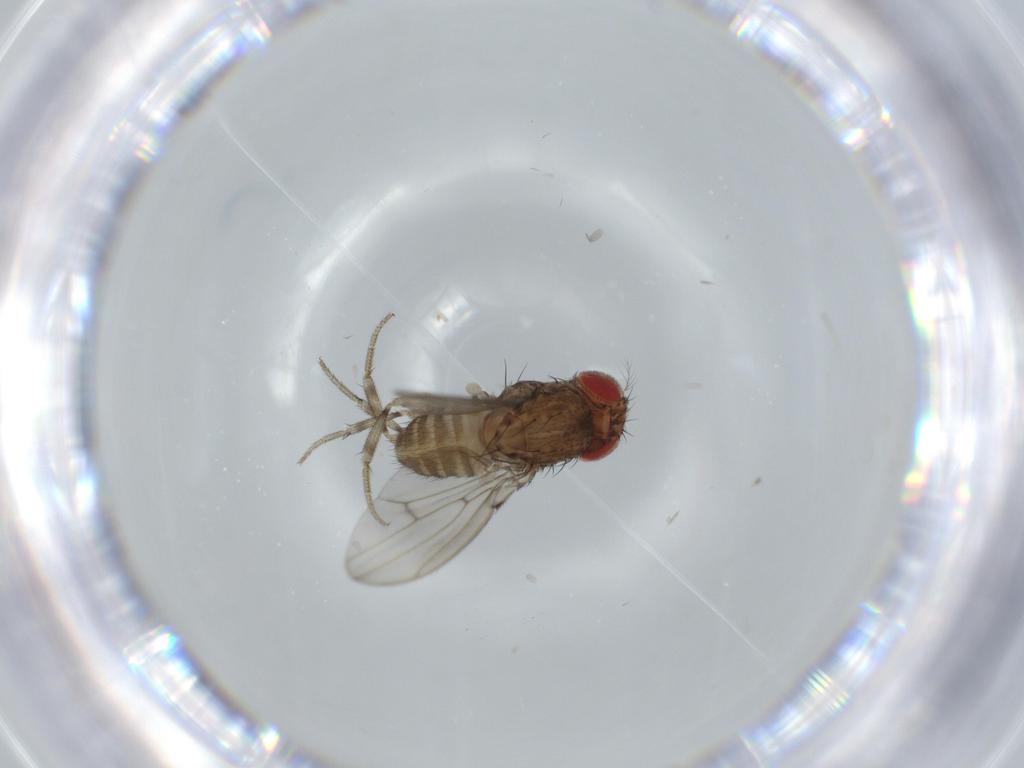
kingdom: Animalia
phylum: Arthropoda
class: Insecta
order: Diptera
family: Drosophilidae
